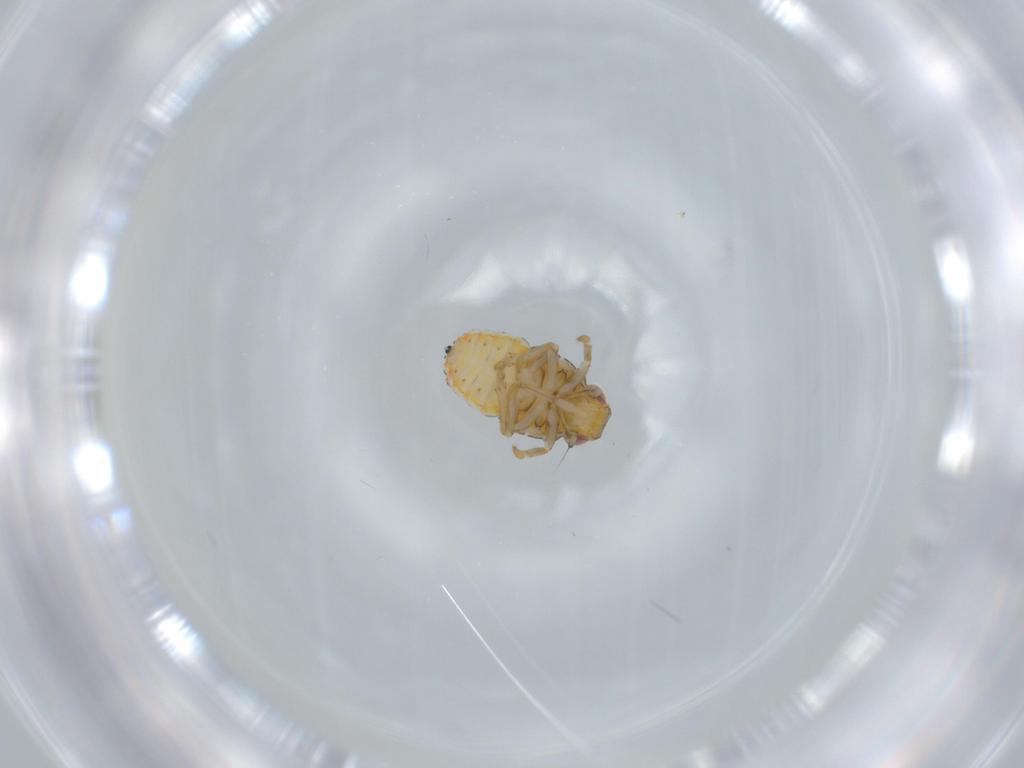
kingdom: Animalia
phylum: Arthropoda
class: Insecta
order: Hemiptera
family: Issidae
